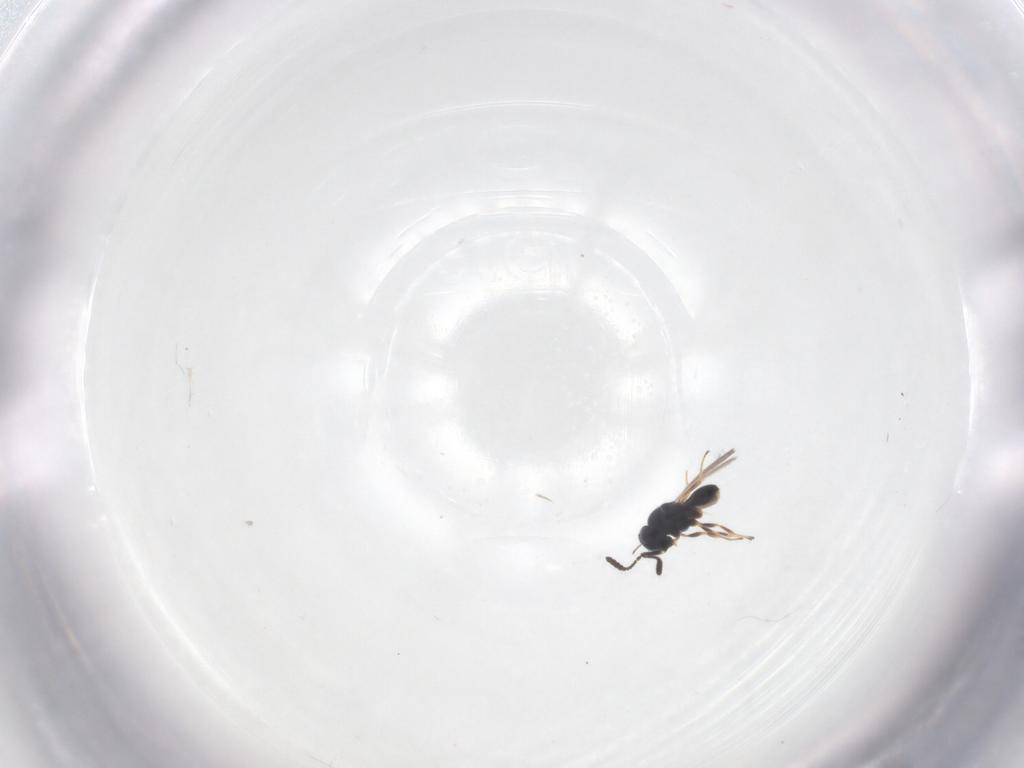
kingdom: Animalia
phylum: Arthropoda
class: Insecta
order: Hymenoptera
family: Scelionidae
